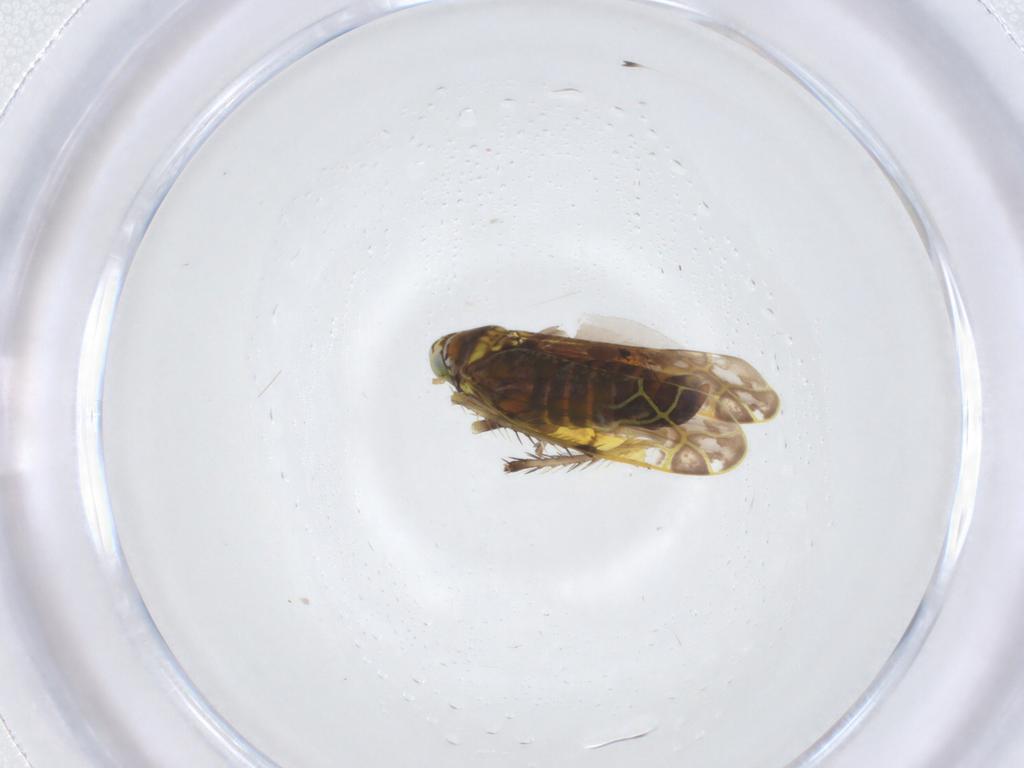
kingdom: Animalia
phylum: Arthropoda
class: Insecta
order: Hemiptera
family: Cicadellidae
